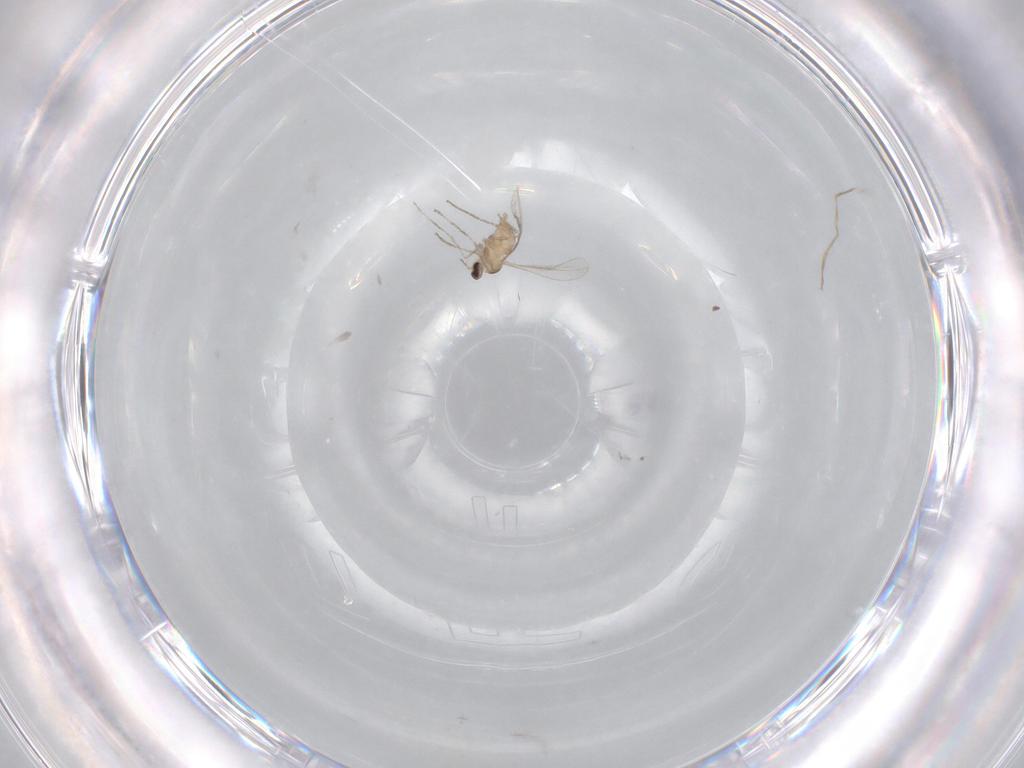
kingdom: Animalia
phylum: Arthropoda
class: Insecta
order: Diptera
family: Cecidomyiidae
